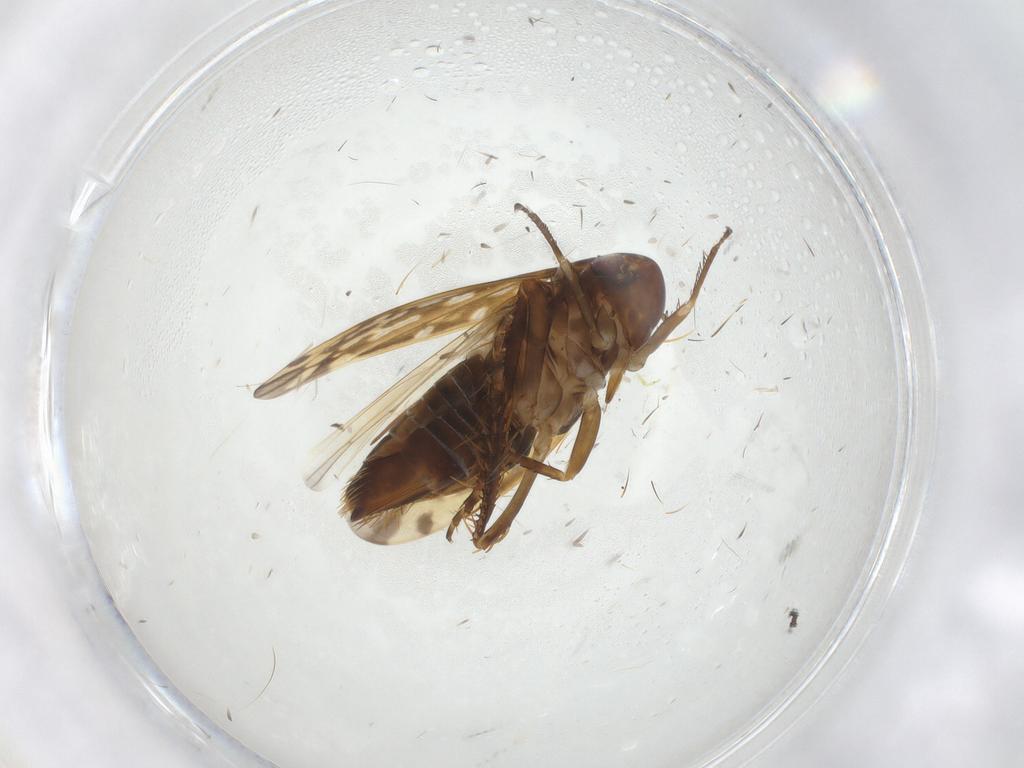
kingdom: Animalia
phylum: Arthropoda
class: Insecta
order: Hemiptera
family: Cicadellidae
